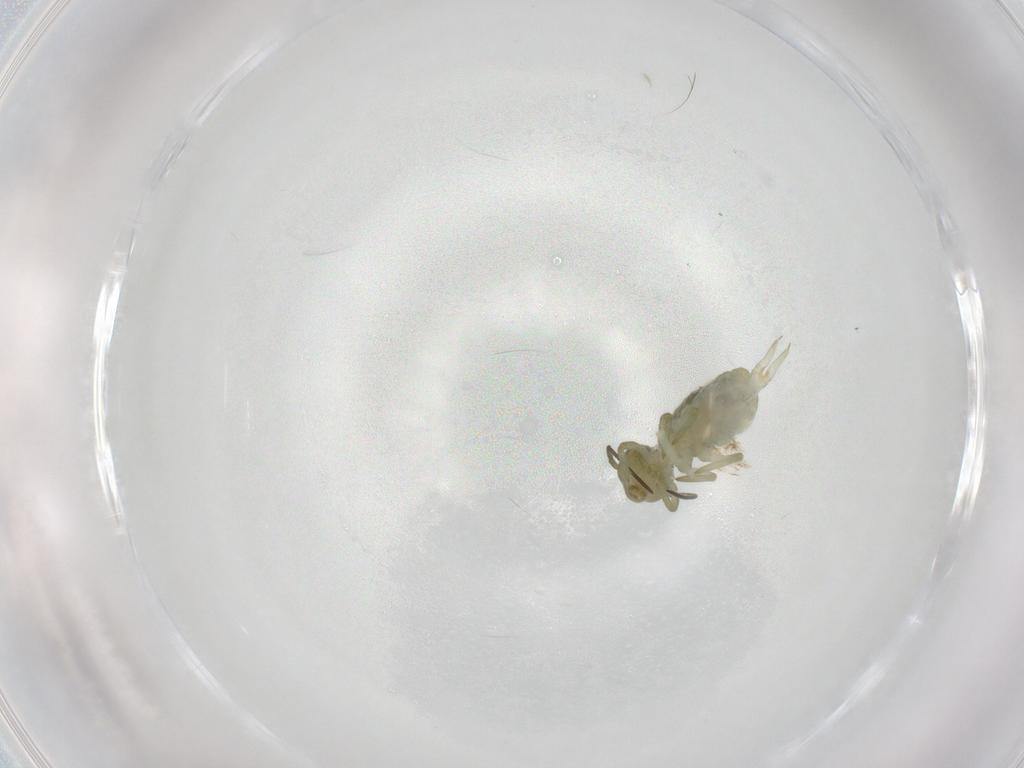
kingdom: Animalia
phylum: Arthropoda
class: Collembola
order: Symphypleona
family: Sminthuridae
